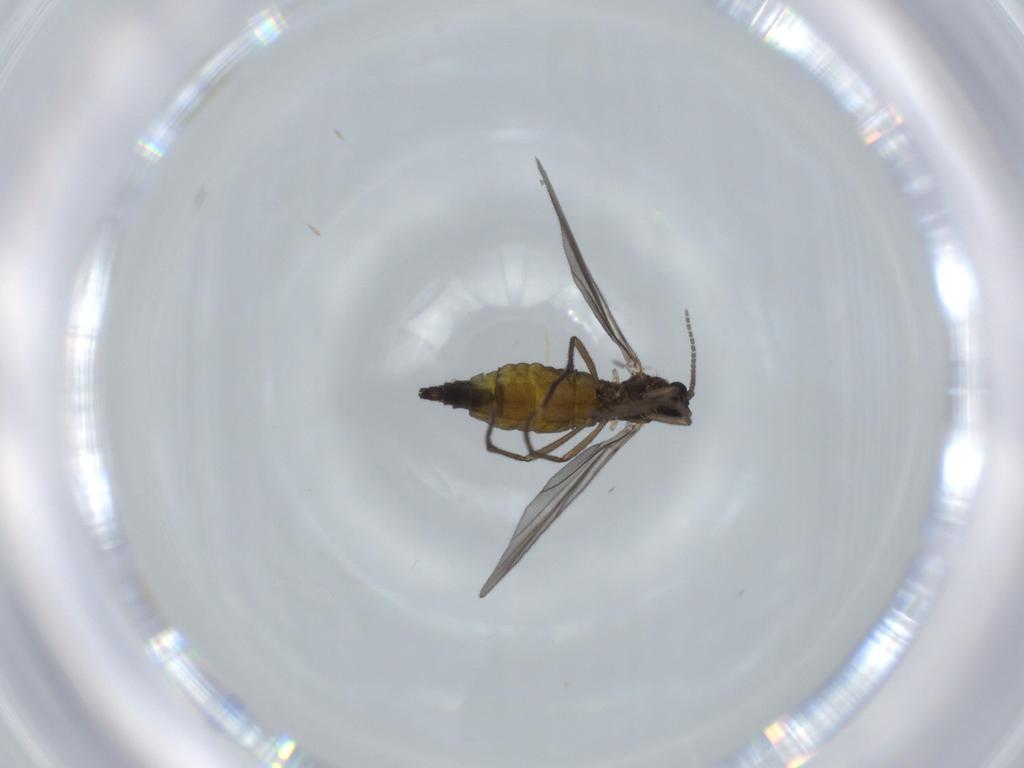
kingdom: Animalia
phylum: Arthropoda
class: Insecta
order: Diptera
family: Sciaridae
